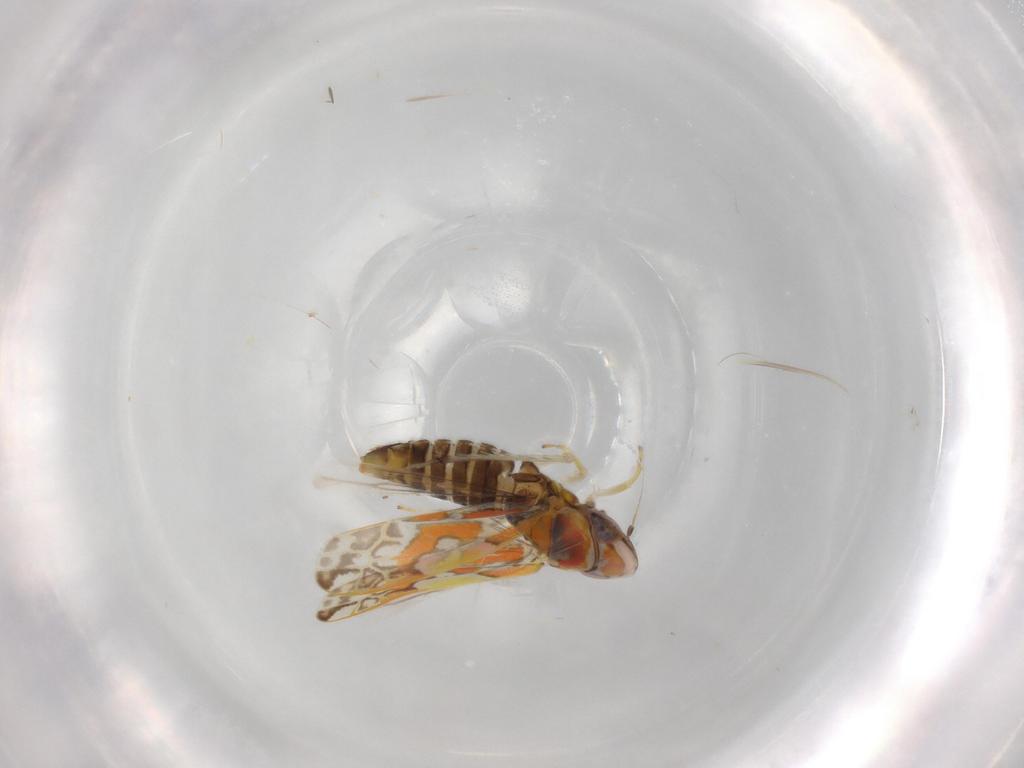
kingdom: Animalia
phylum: Arthropoda
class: Insecta
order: Hemiptera
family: Cicadellidae
